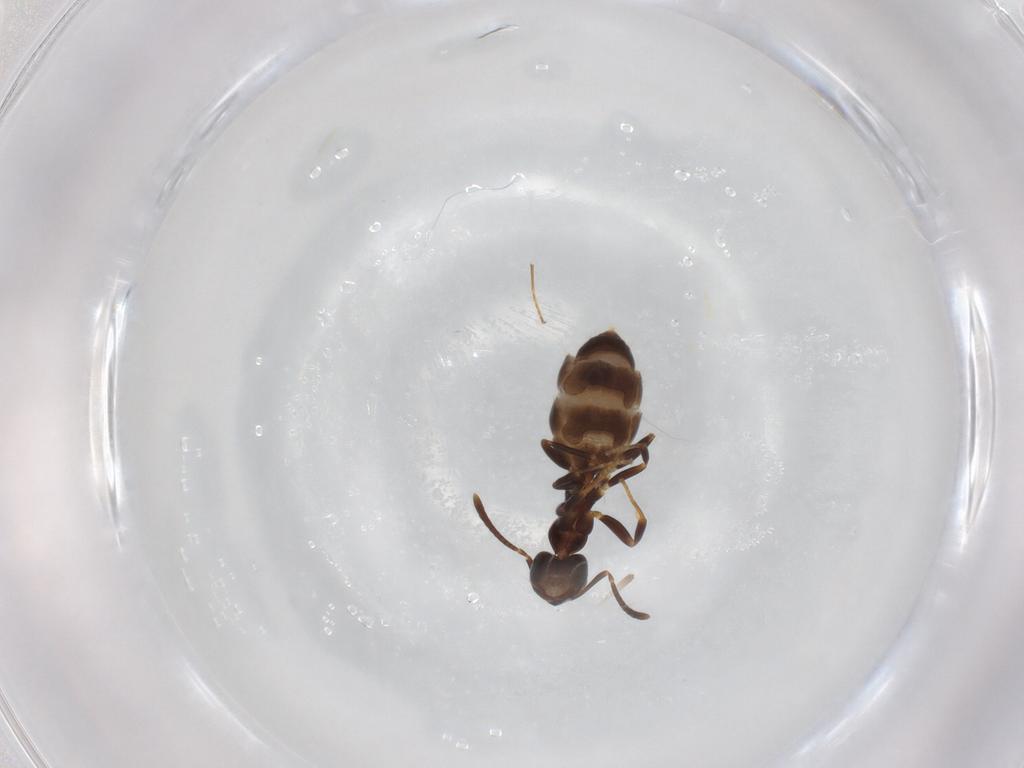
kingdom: Animalia
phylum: Arthropoda
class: Insecta
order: Hymenoptera
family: Formicidae
